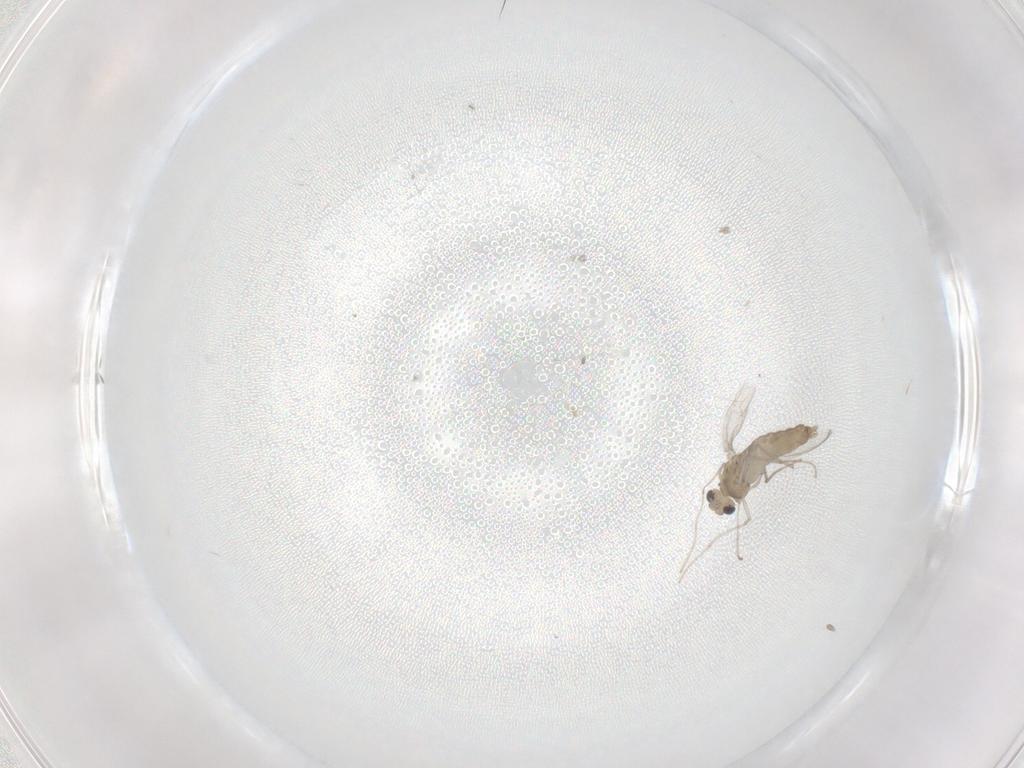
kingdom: Animalia
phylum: Arthropoda
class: Insecta
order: Diptera
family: Chironomidae
